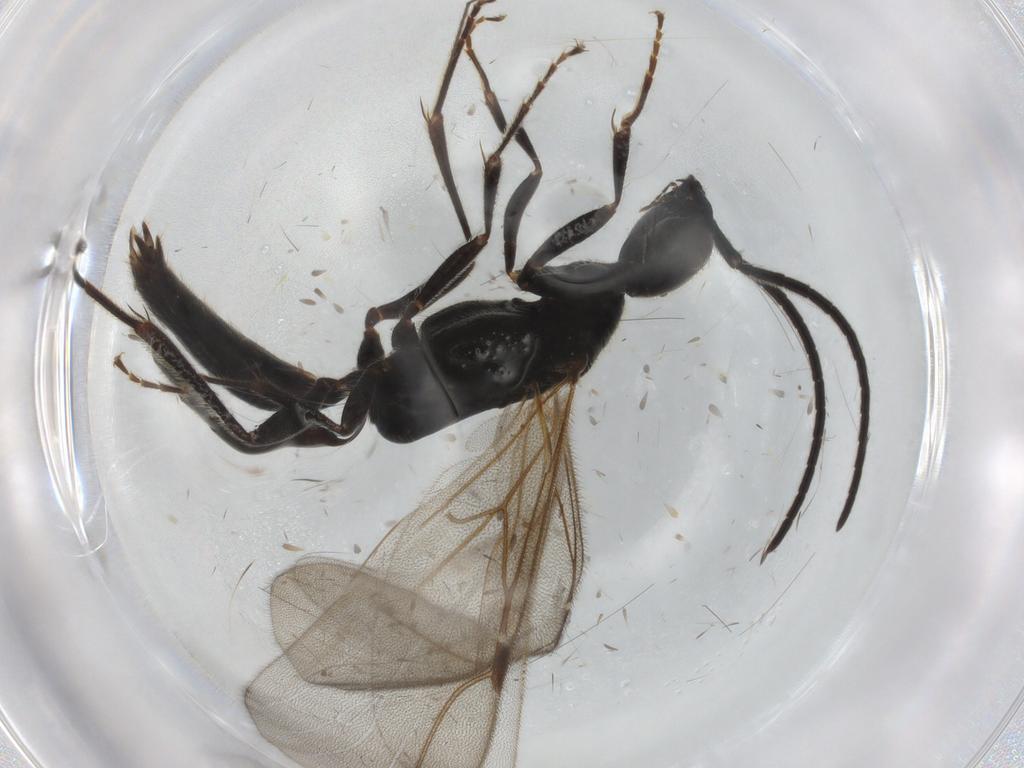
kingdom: Animalia
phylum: Arthropoda
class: Insecta
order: Hymenoptera
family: Bethylidae
